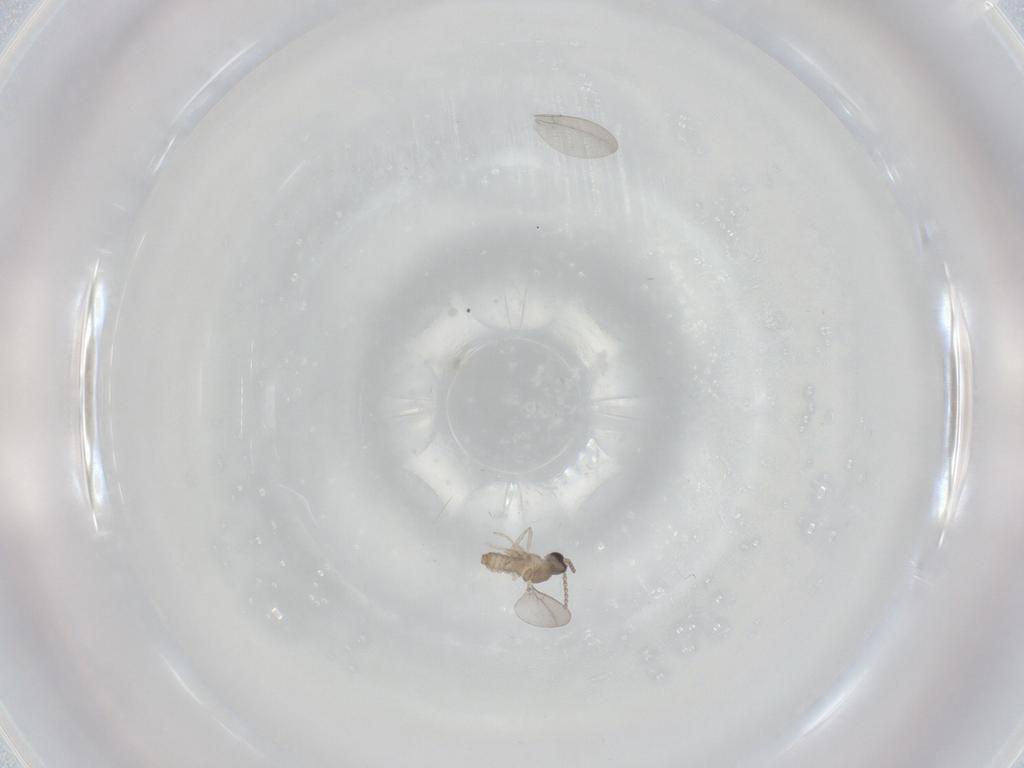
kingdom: Animalia
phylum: Arthropoda
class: Insecta
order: Diptera
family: Cecidomyiidae
